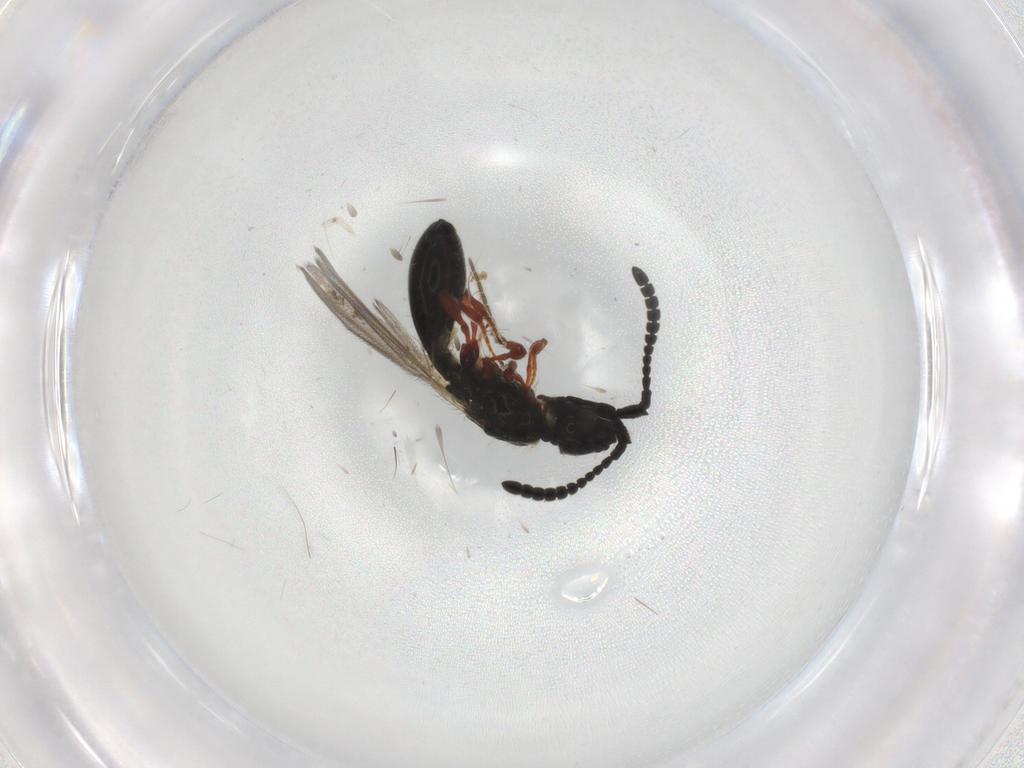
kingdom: Animalia
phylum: Arthropoda
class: Insecta
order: Hymenoptera
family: Diapriidae
